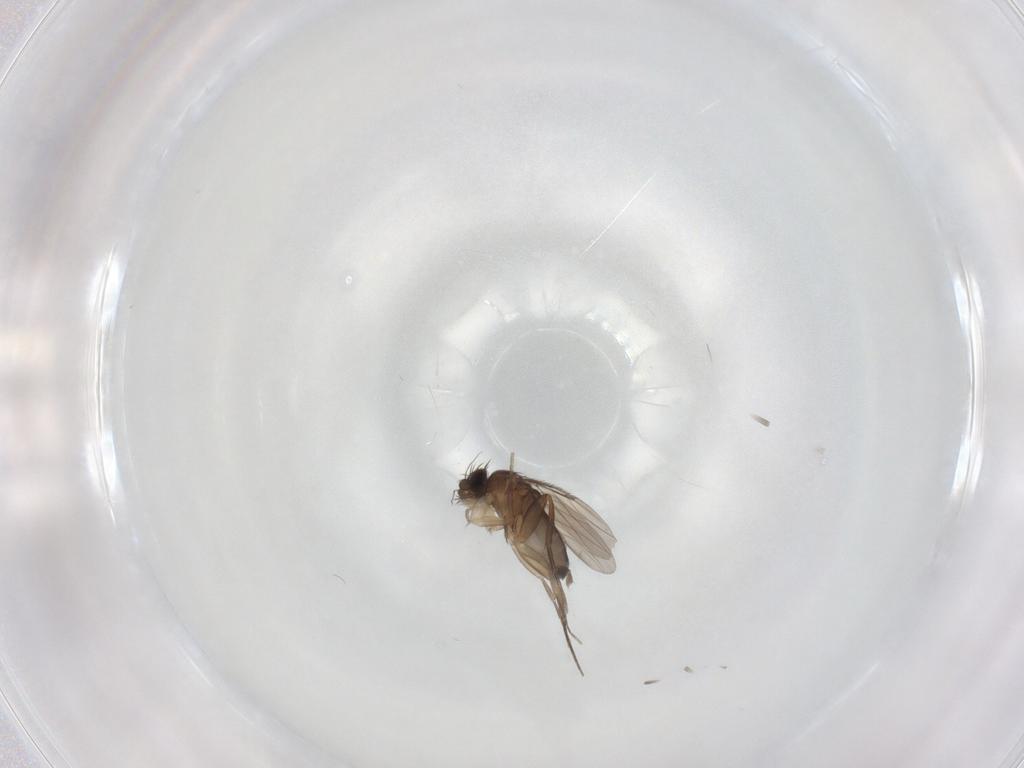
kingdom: Animalia
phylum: Arthropoda
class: Insecta
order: Diptera
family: Phoridae
